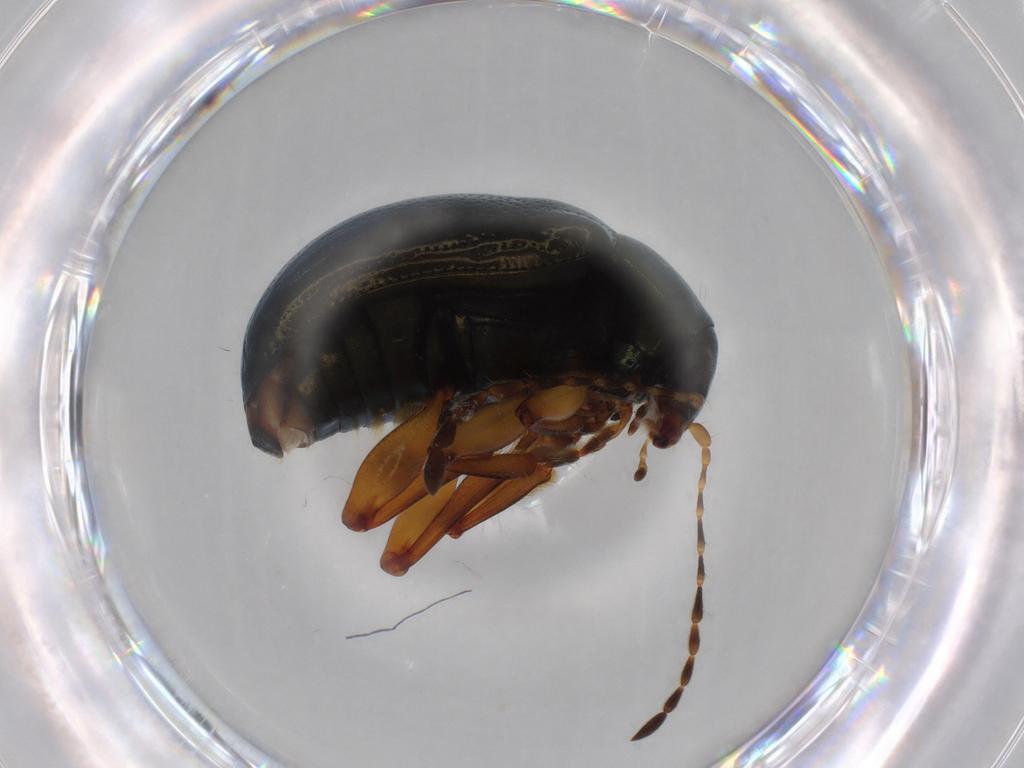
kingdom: Animalia
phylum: Arthropoda
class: Insecta
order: Coleoptera
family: Chrysomelidae
